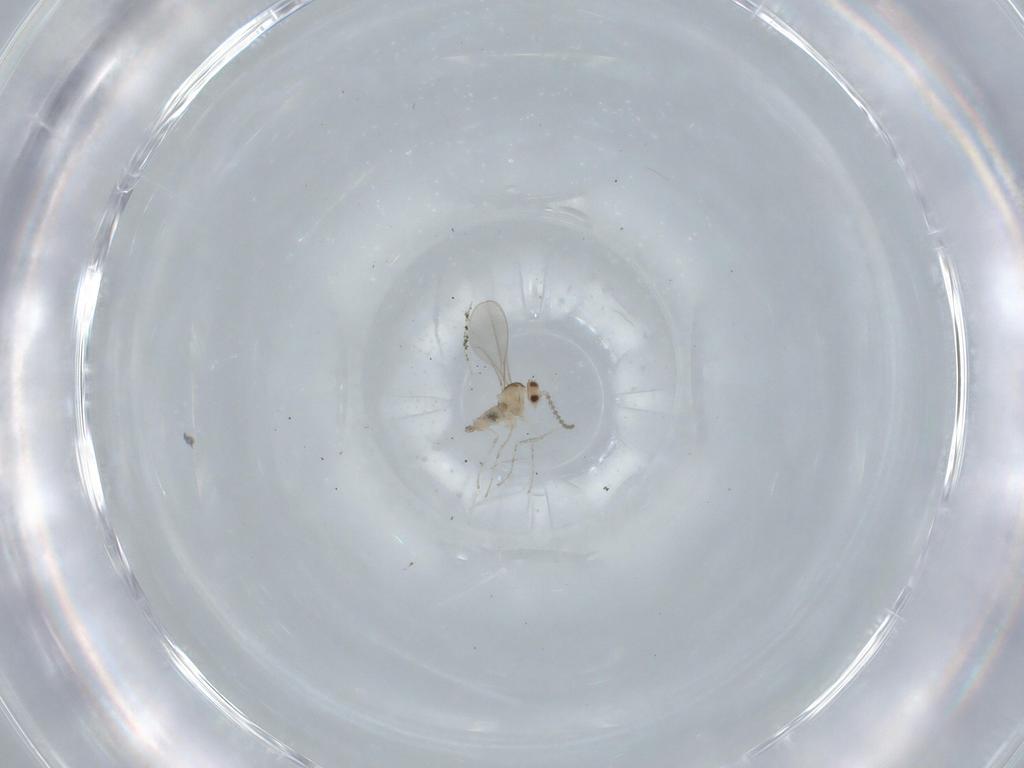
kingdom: Animalia
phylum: Arthropoda
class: Insecta
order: Diptera
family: Cecidomyiidae
